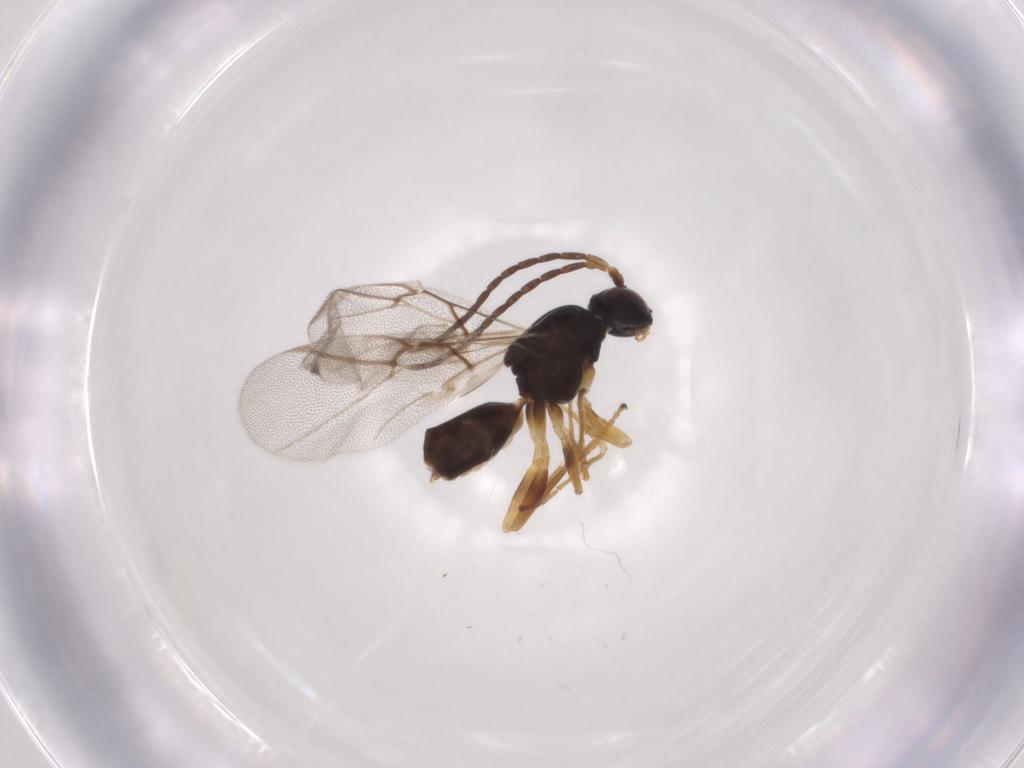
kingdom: Animalia
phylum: Arthropoda
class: Insecta
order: Hymenoptera
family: Cynipidae
